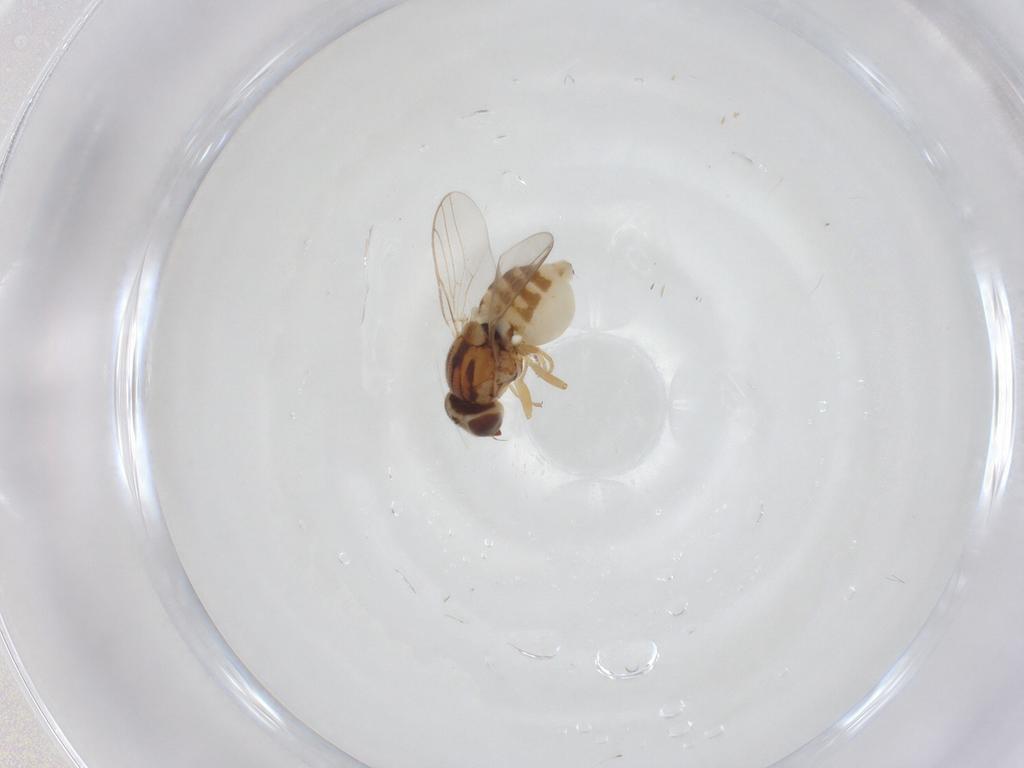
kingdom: Animalia
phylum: Arthropoda
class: Insecta
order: Diptera
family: Chloropidae
